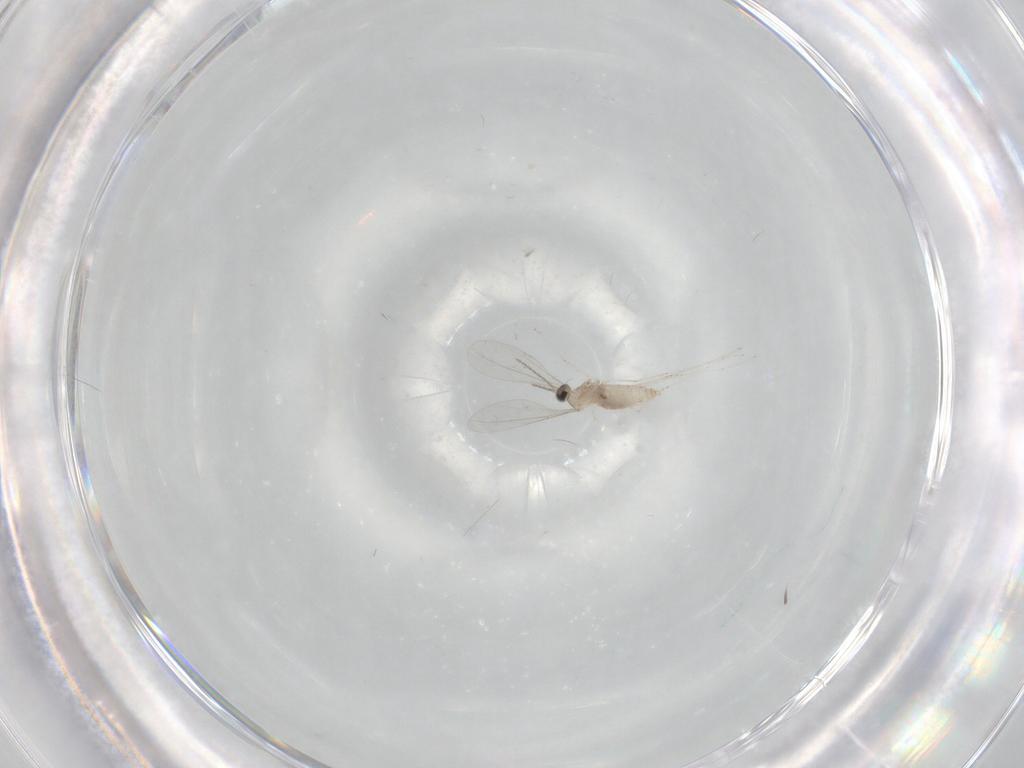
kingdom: Animalia
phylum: Arthropoda
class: Insecta
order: Diptera
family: Cecidomyiidae
